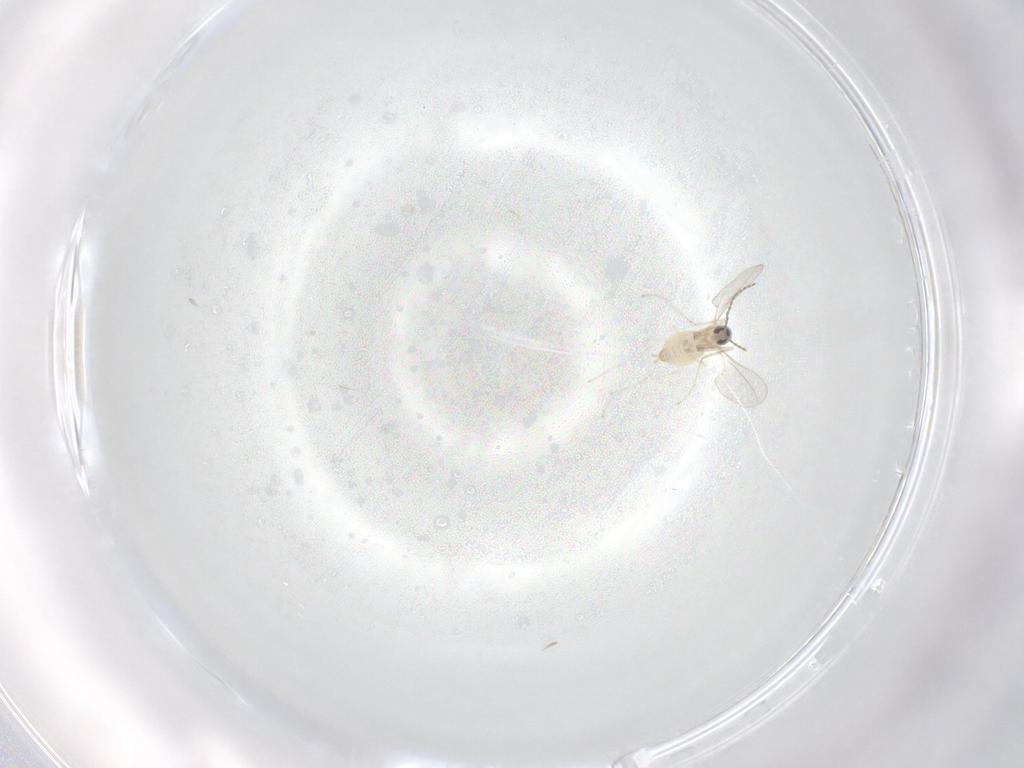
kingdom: Animalia
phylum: Arthropoda
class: Insecta
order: Diptera
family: Cecidomyiidae
